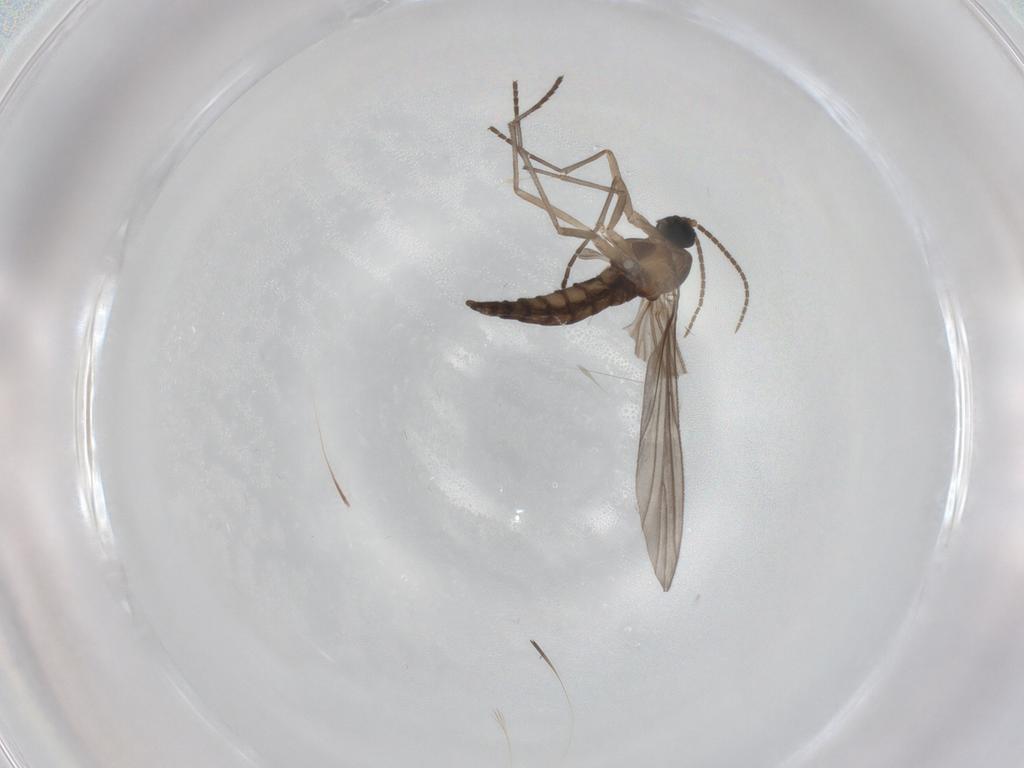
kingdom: Animalia
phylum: Arthropoda
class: Insecta
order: Diptera
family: Sciaridae
